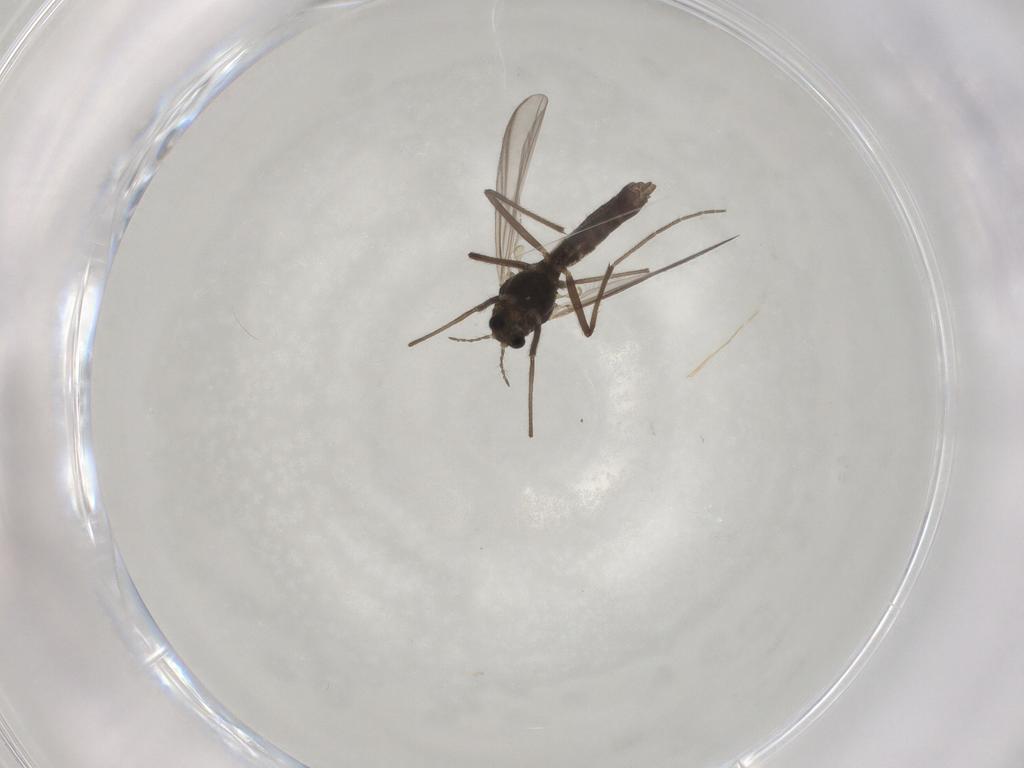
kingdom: Animalia
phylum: Arthropoda
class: Insecta
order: Diptera
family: Chironomidae
